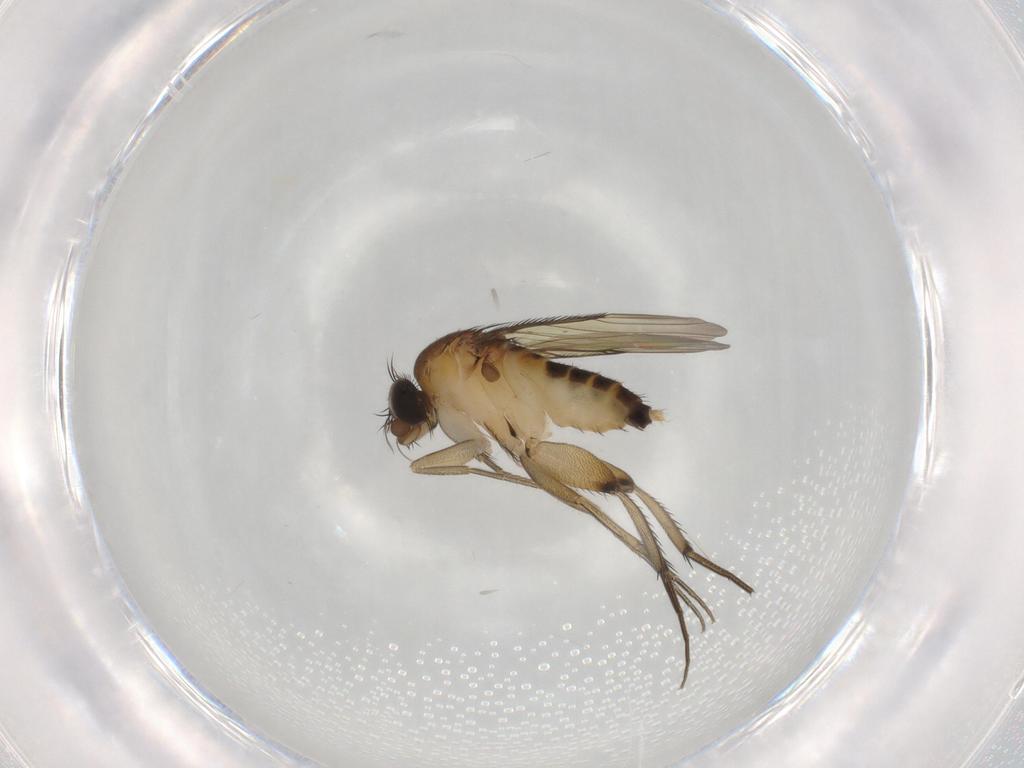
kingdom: Animalia
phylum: Arthropoda
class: Insecta
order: Diptera
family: Phoridae
